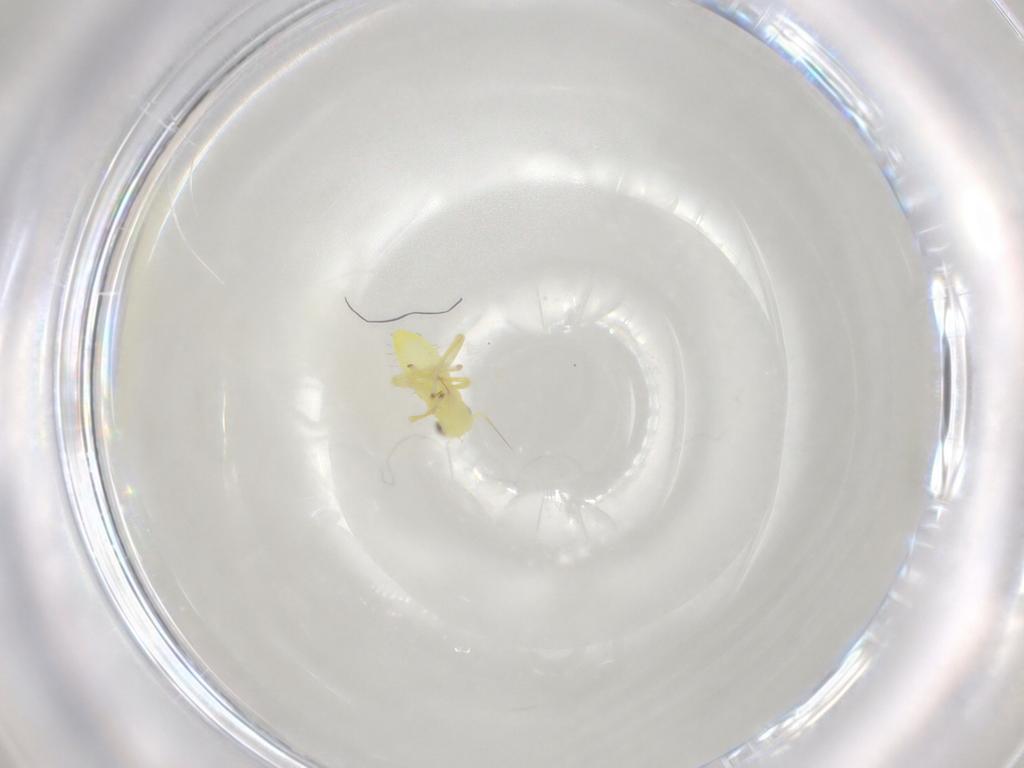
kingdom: Animalia
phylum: Arthropoda
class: Insecta
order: Hemiptera
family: Cicadellidae
